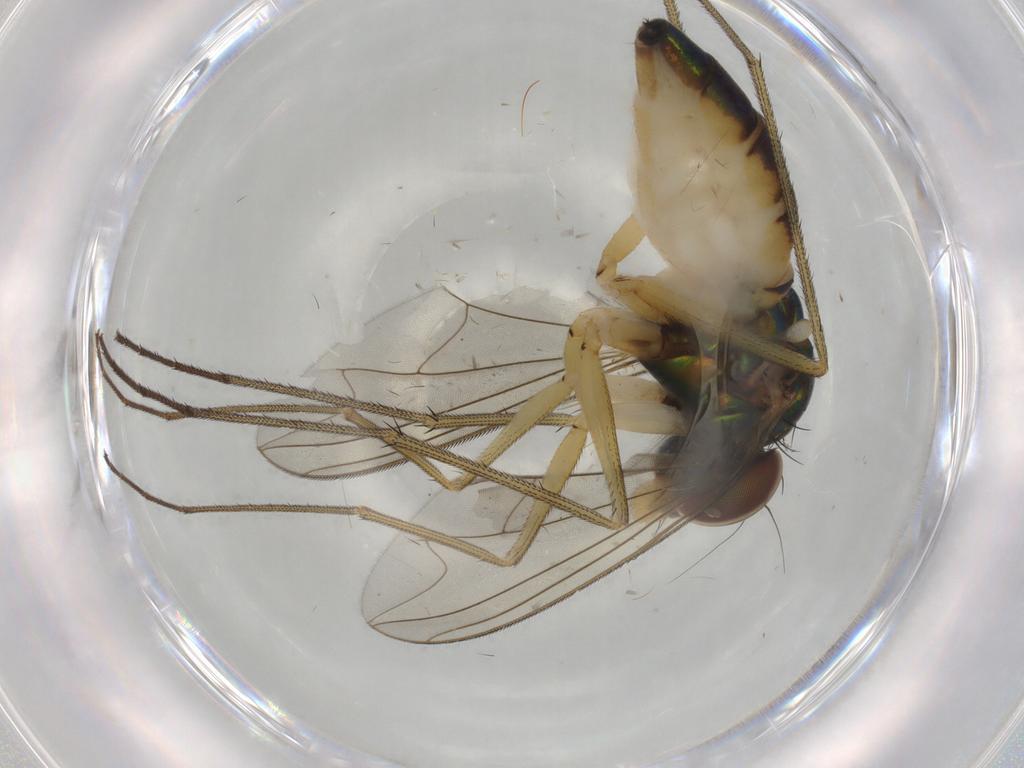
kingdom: Animalia
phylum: Arthropoda
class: Insecta
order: Diptera
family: Dolichopodidae
